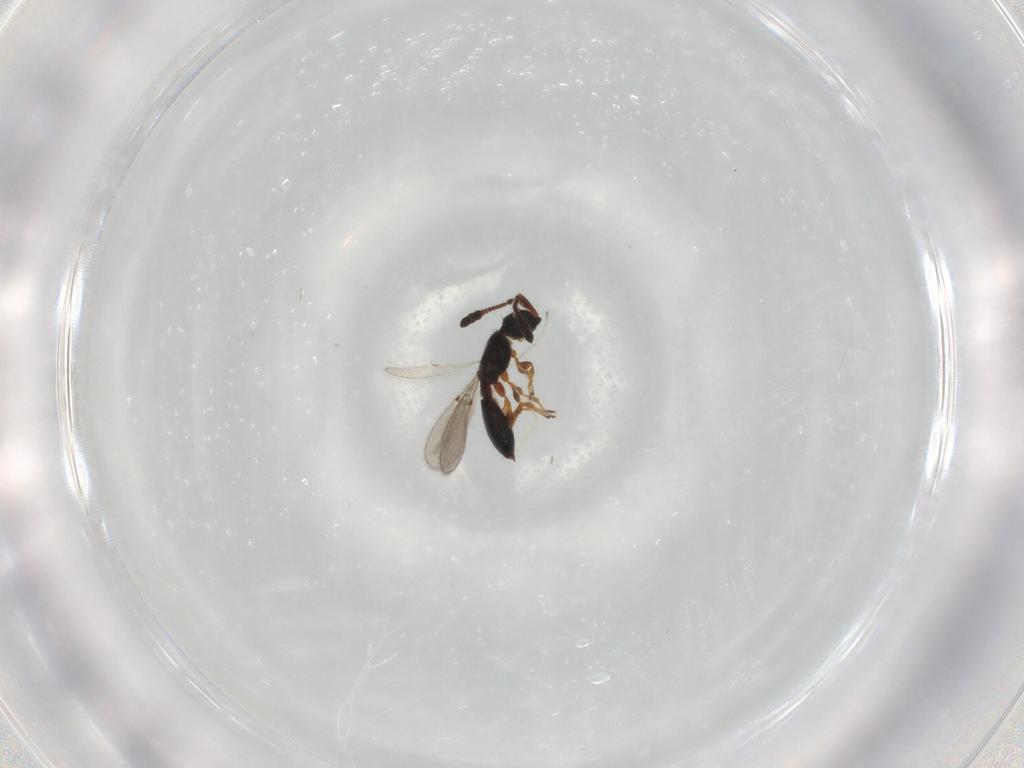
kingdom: Animalia
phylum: Arthropoda
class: Insecta
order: Hymenoptera
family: Diapriidae
